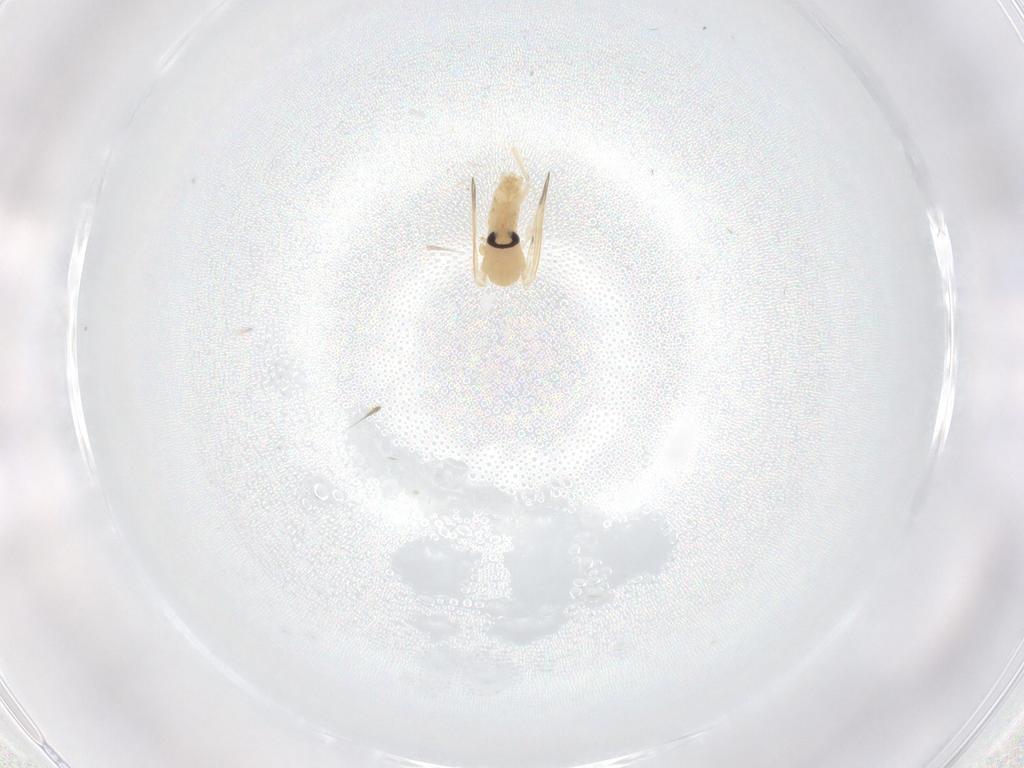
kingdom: Animalia
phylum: Arthropoda
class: Insecta
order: Diptera
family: Psychodidae
